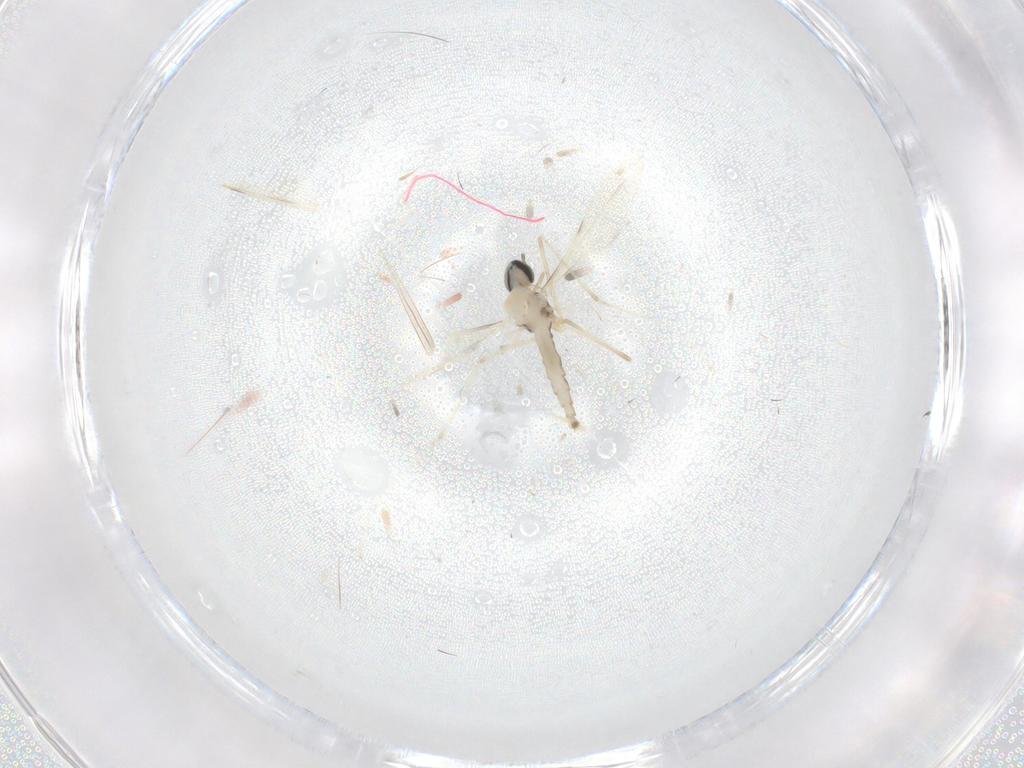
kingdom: Animalia
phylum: Arthropoda
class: Insecta
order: Diptera
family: Cecidomyiidae
